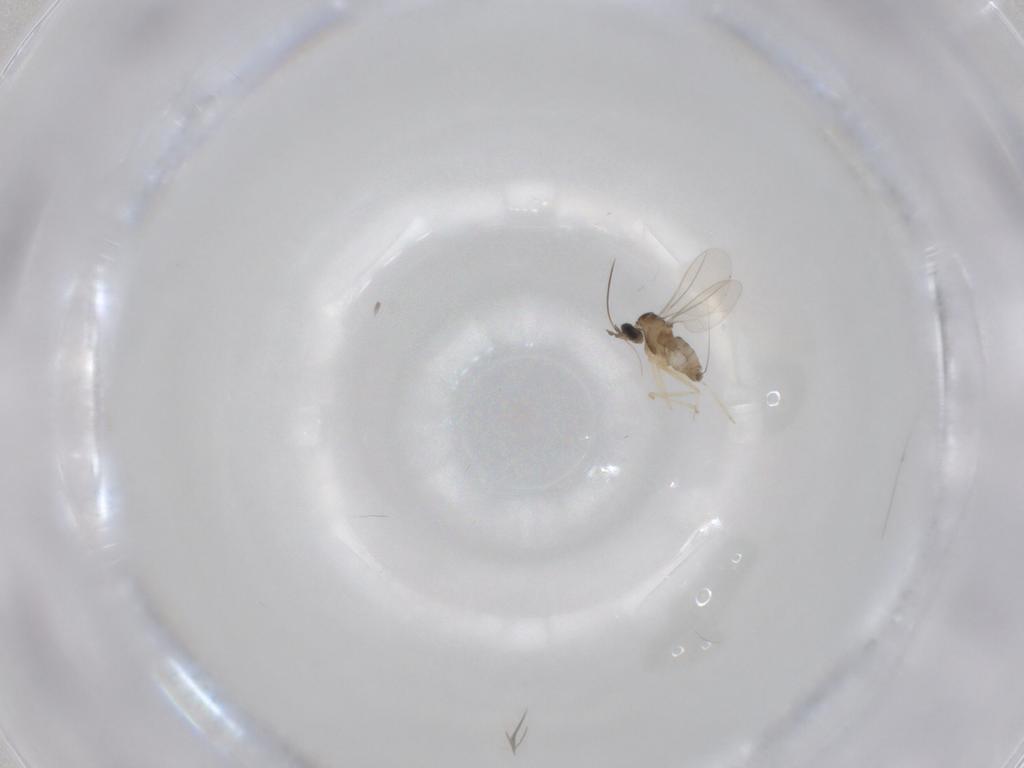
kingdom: Animalia
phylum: Arthropoda
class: Insecta
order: Diptera
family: Cecidomyiidae
